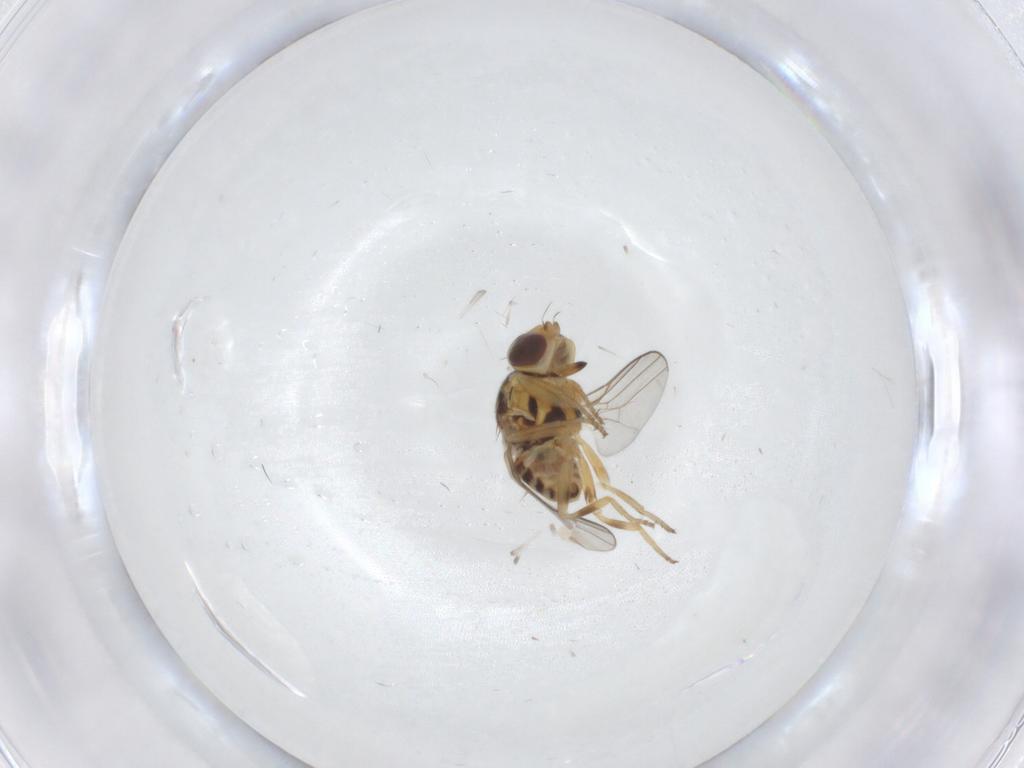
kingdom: Animalia
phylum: Arthropoda
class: Insecta
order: Diptera
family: Chloropidae
